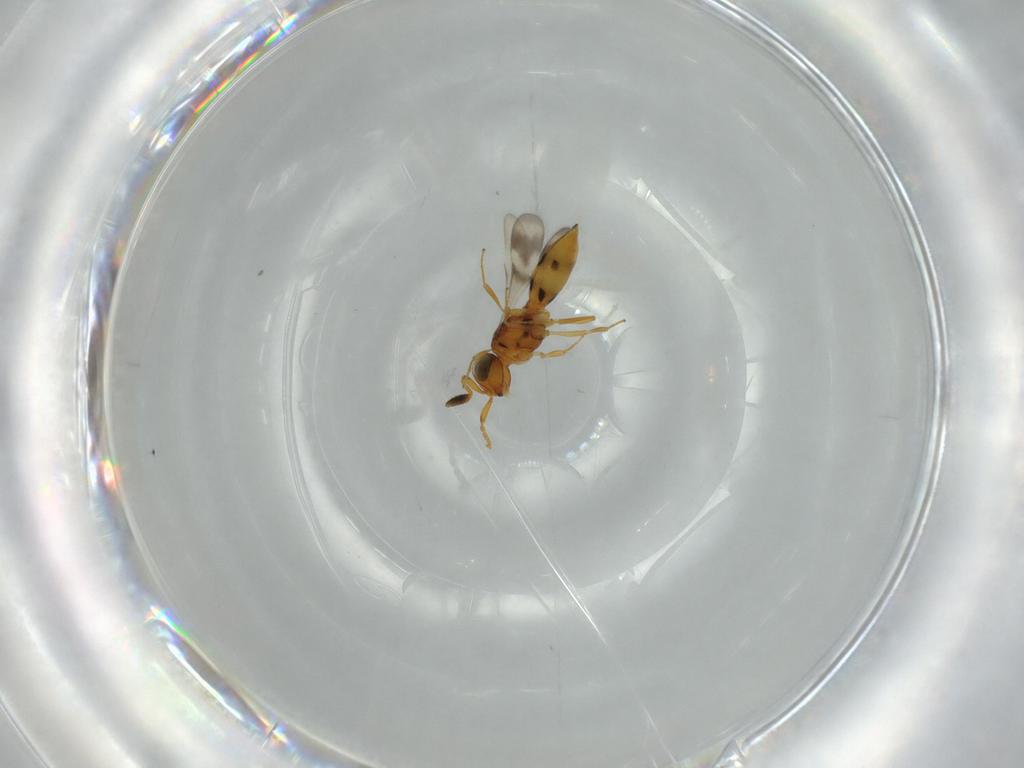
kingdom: Animalia
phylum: Arthropoda
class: Insecta
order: Hymenoptera
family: Scelionidae
